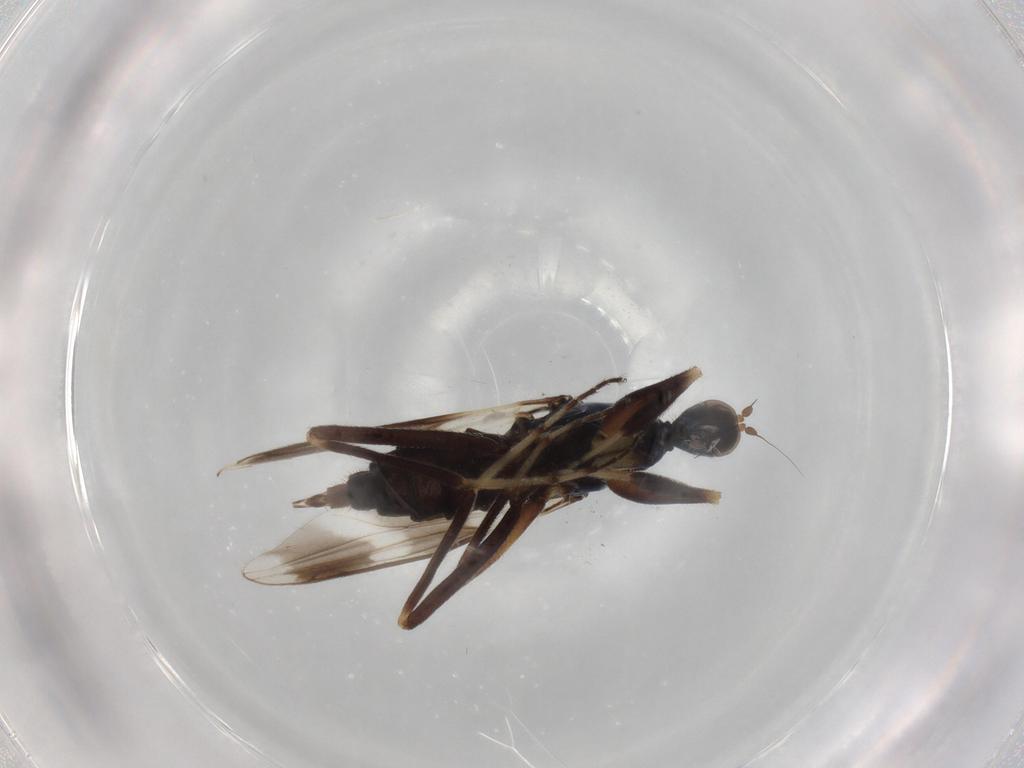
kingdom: Animalia
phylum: Arthropoda
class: Insecta
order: Diptera
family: Hybotidae
